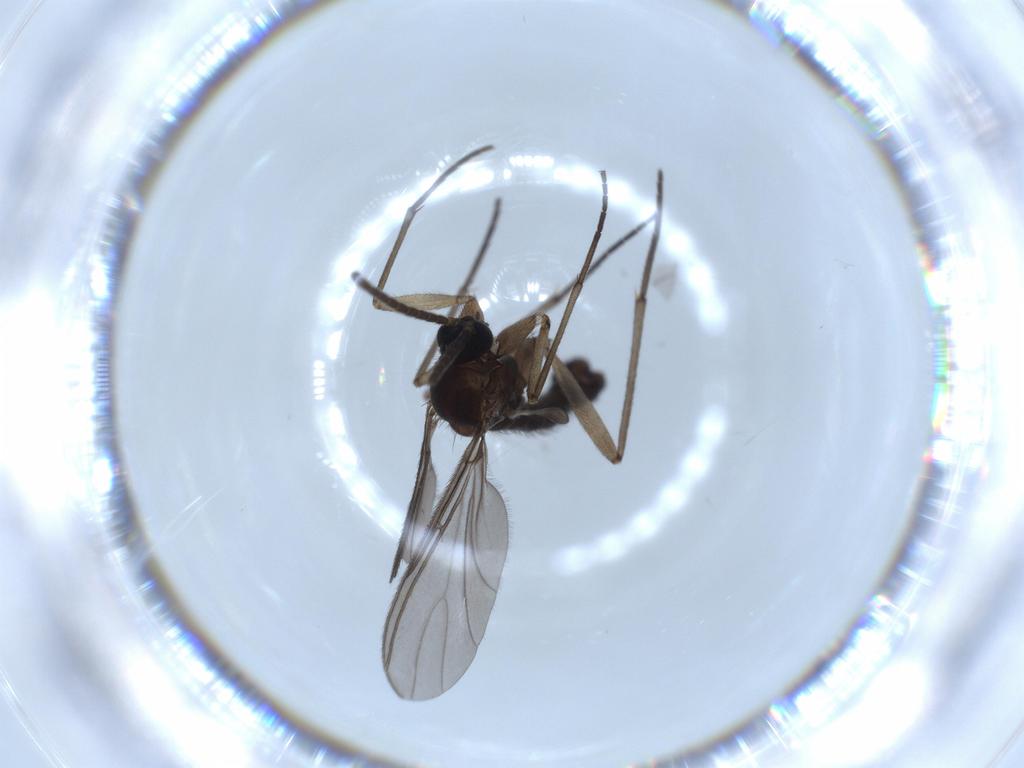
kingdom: Animalia
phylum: Arthropoda
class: Insecta
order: Diptera
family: Sciaridae
